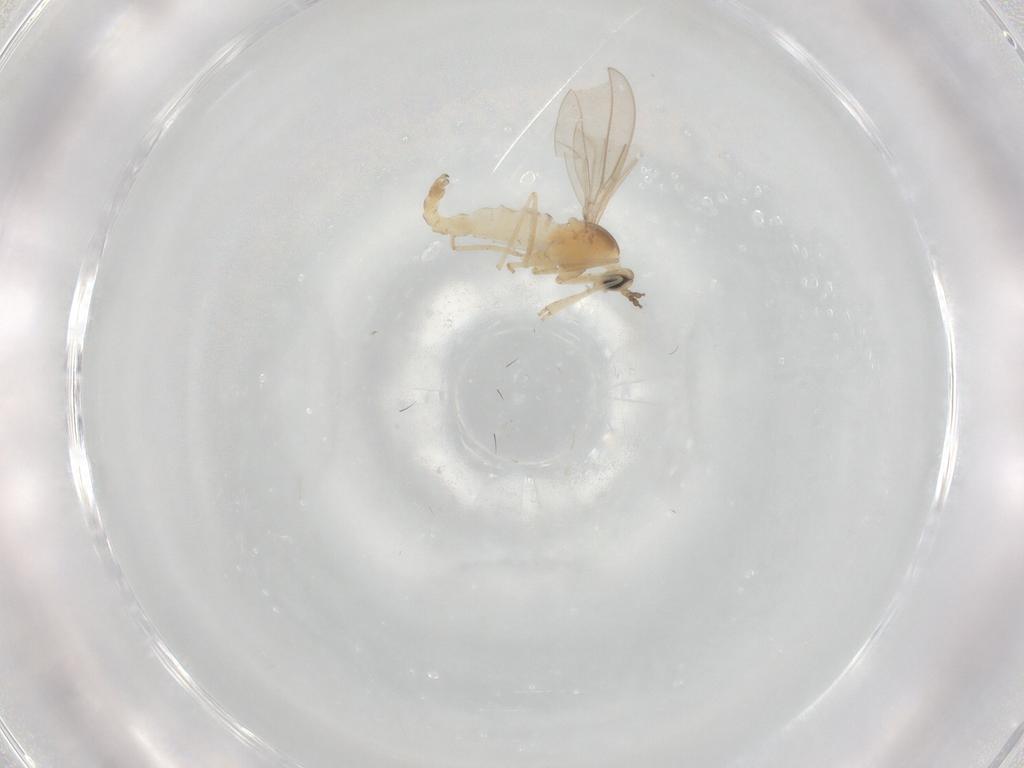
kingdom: Animalia
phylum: Arthropoda
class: Insecta
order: Diptera
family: Cecidomyiidae
